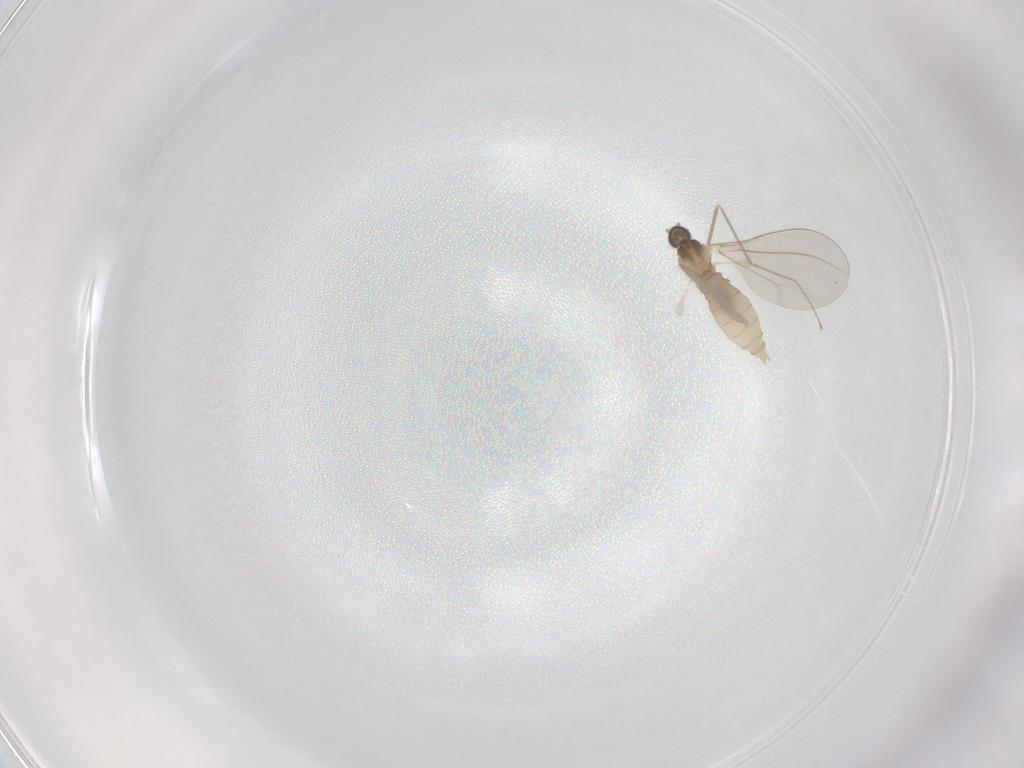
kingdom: Animalia
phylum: Arthropoda
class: Insecta
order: Diptera
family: Cecidomyiidae
